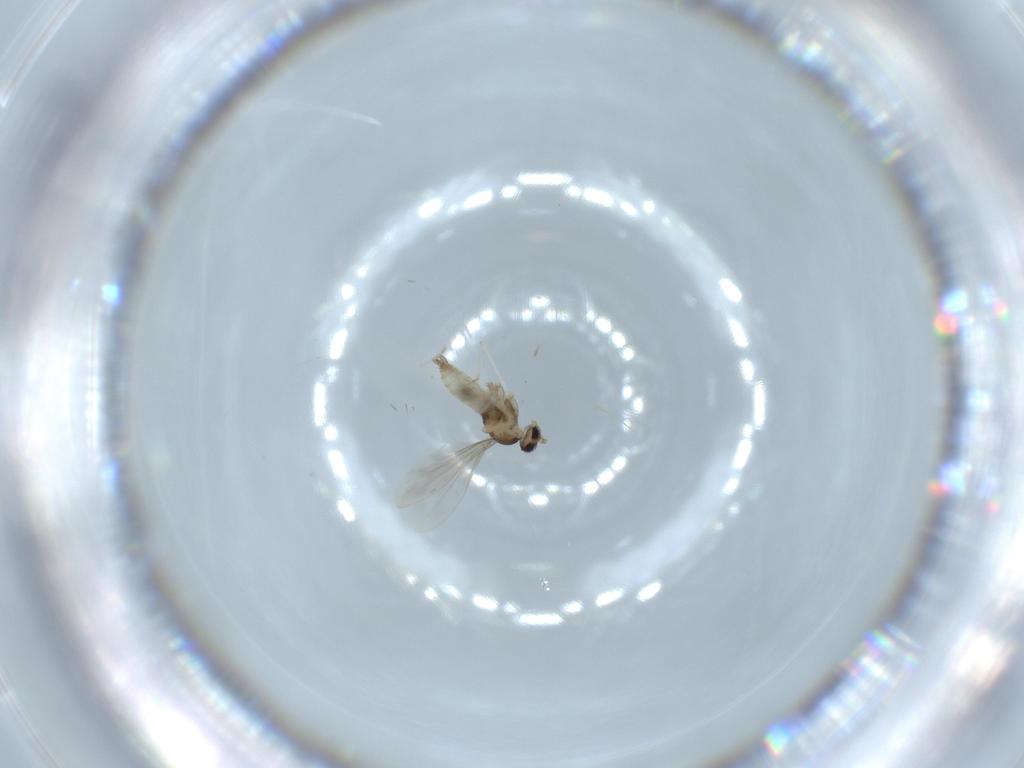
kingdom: Animalia
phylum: Arthropoda
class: Insecta
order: Diptera
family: Cecidomyiidae
